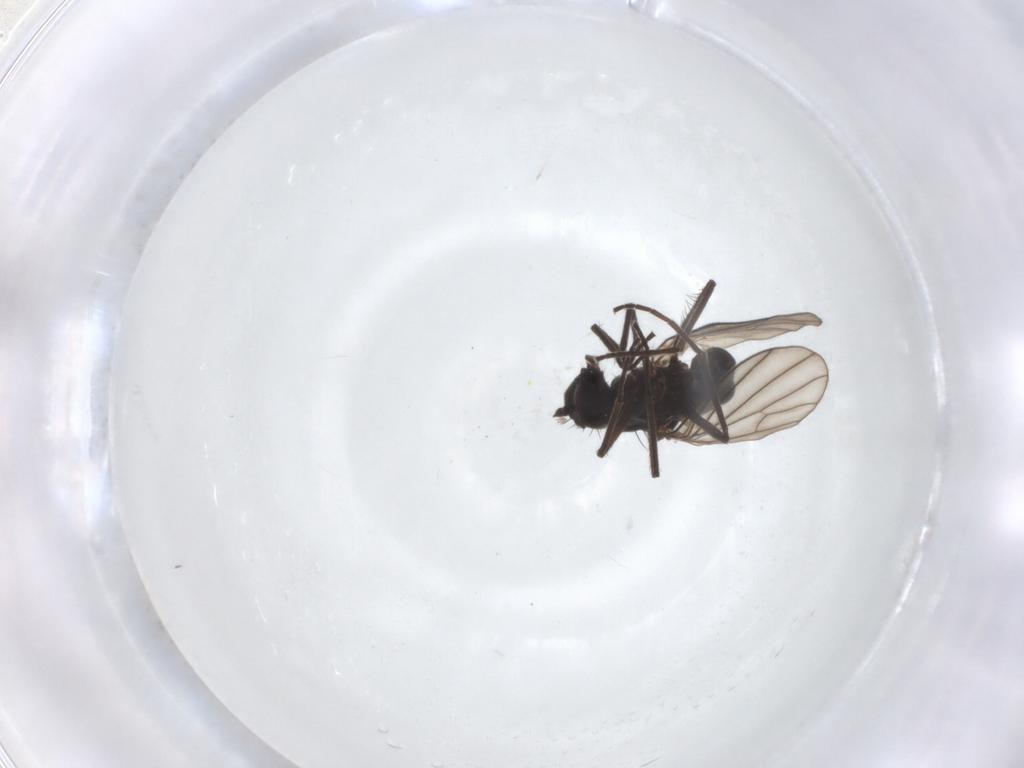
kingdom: Animalia
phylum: Arthropoda
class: Insecta
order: Diptera
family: Dolichopodidae
